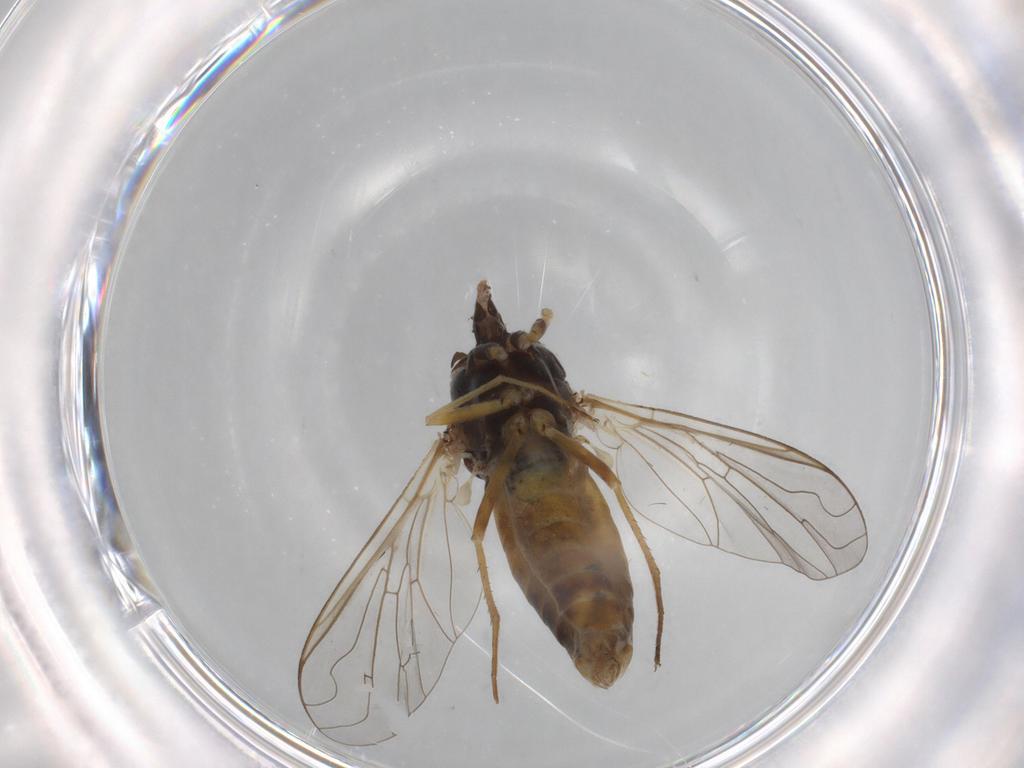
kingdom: Animalia
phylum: Arthropoda
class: Insecta
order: Diptera
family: Bombyliidae
